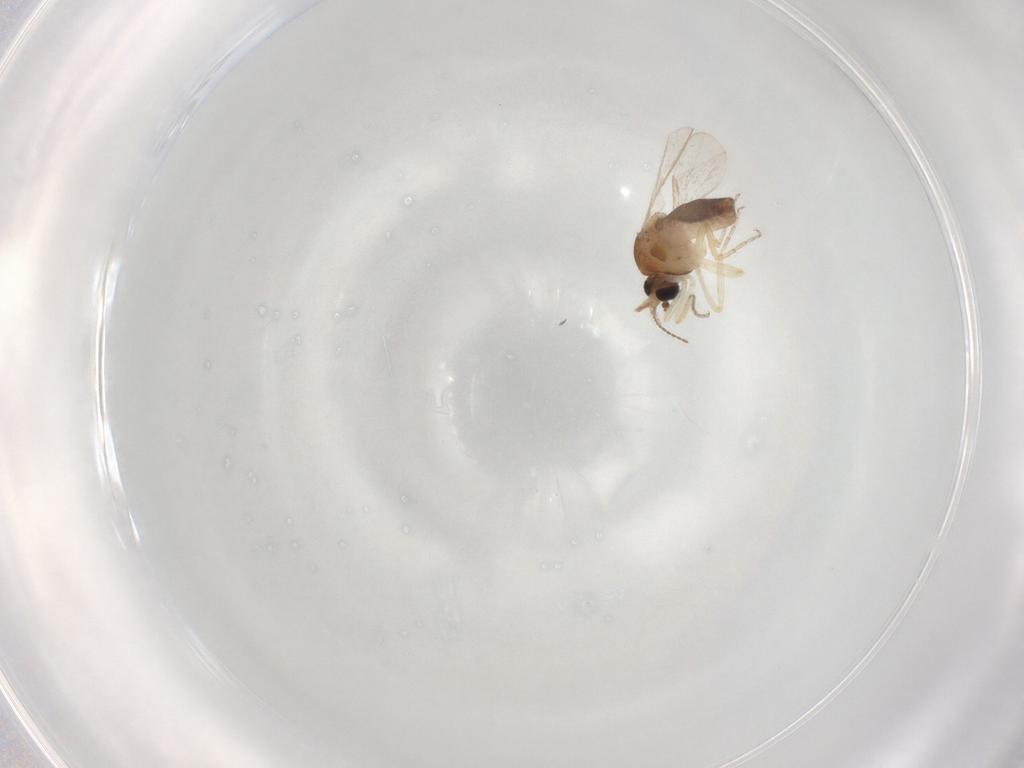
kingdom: Animalia
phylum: Arthropoda
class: Insecta
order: Diptera
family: Ceratopogonidae
